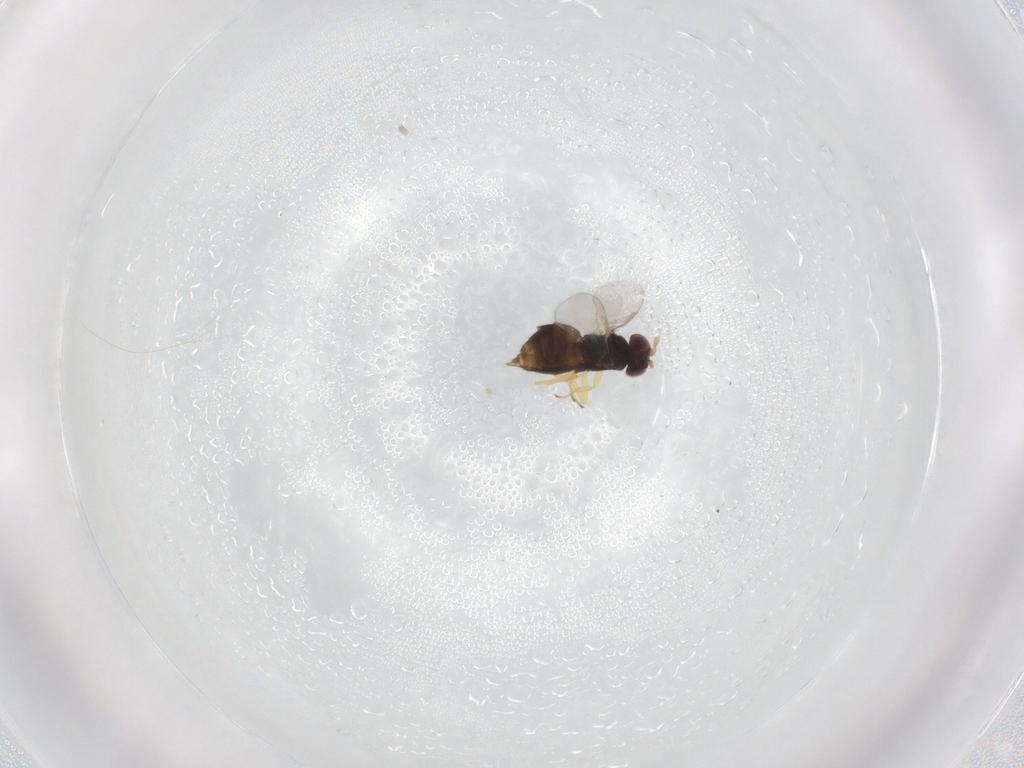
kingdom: Animalia
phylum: Arthropoda
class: Insecta
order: Hymenoptera
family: Aphelinidae
